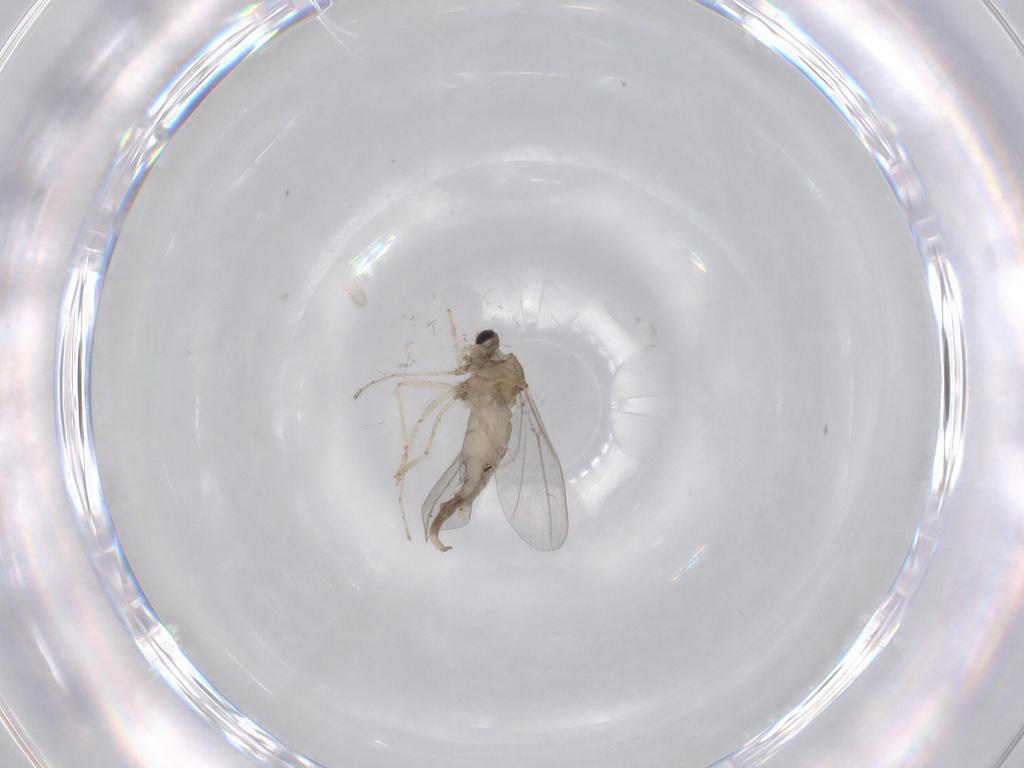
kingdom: Animalia
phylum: Arthropoda
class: Insecta
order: Diptera
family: Cecidomyiidae
